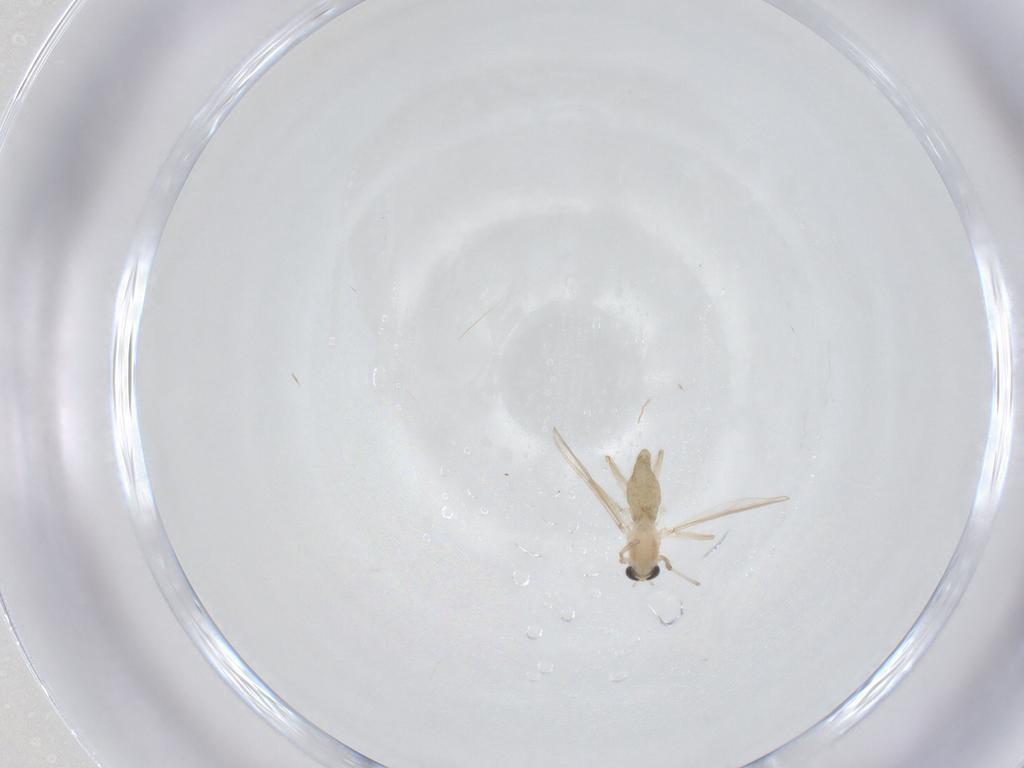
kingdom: Animalia
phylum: Arthropoda
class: Insecta
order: Diptera
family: Chironomidae
